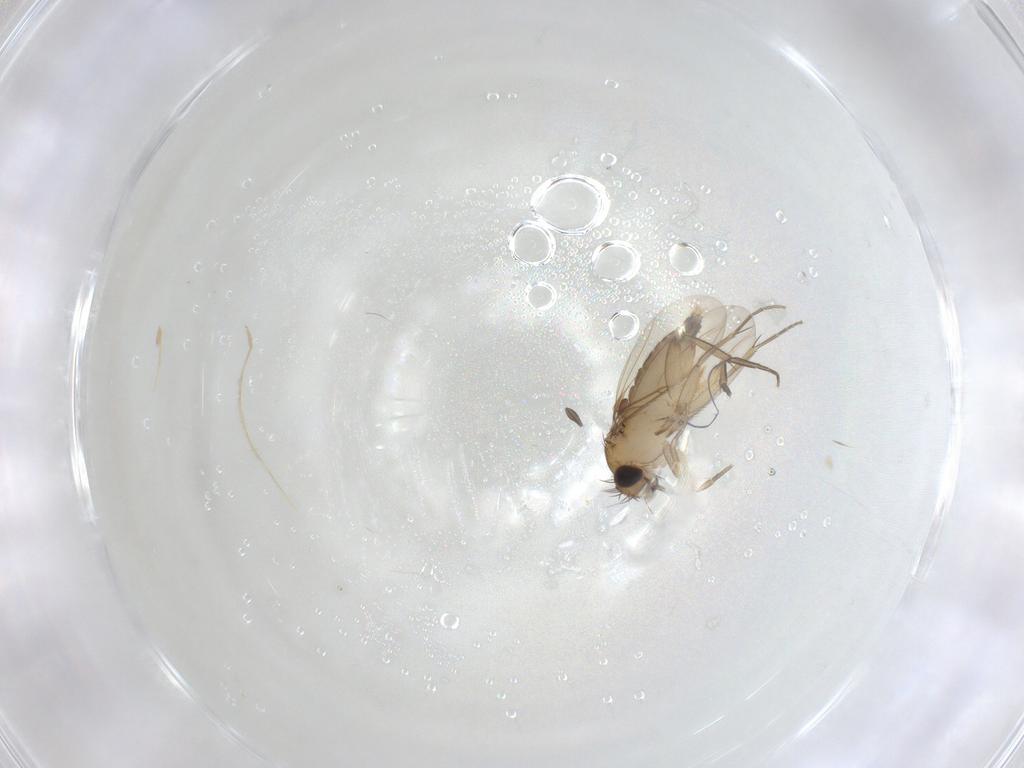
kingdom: Animalia
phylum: Arthropoda
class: Insecta
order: Diptera
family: Phoridae
